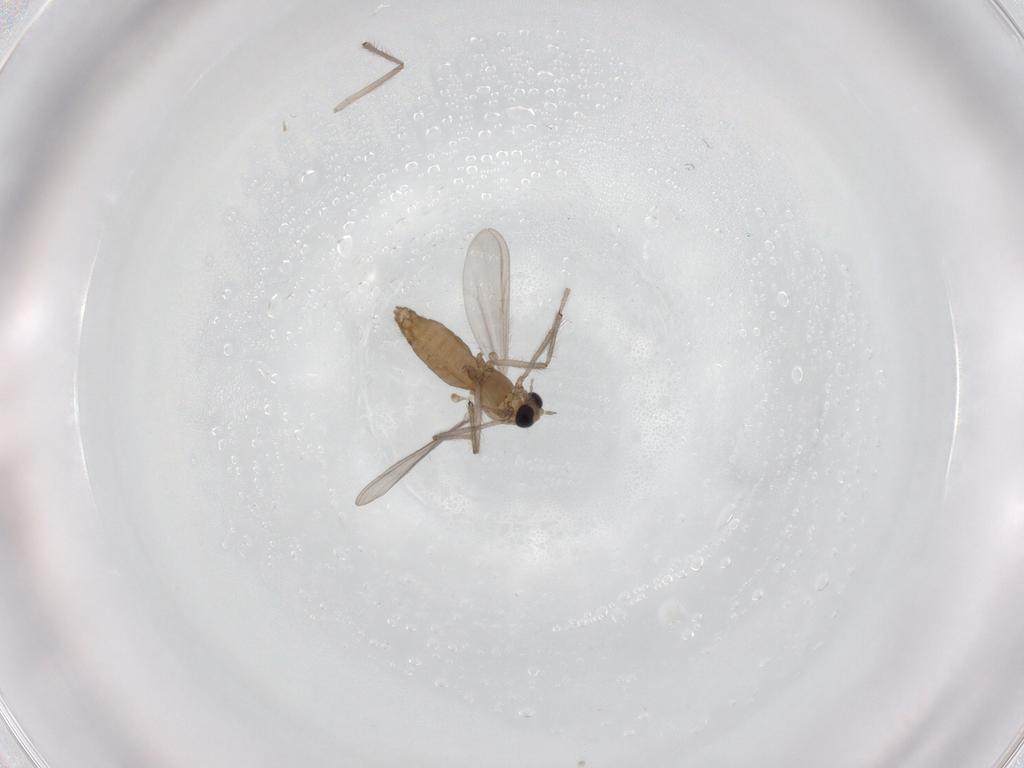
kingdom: Animalia
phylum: Arthropoda
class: Insecta
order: Diptera
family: Chironomidae
